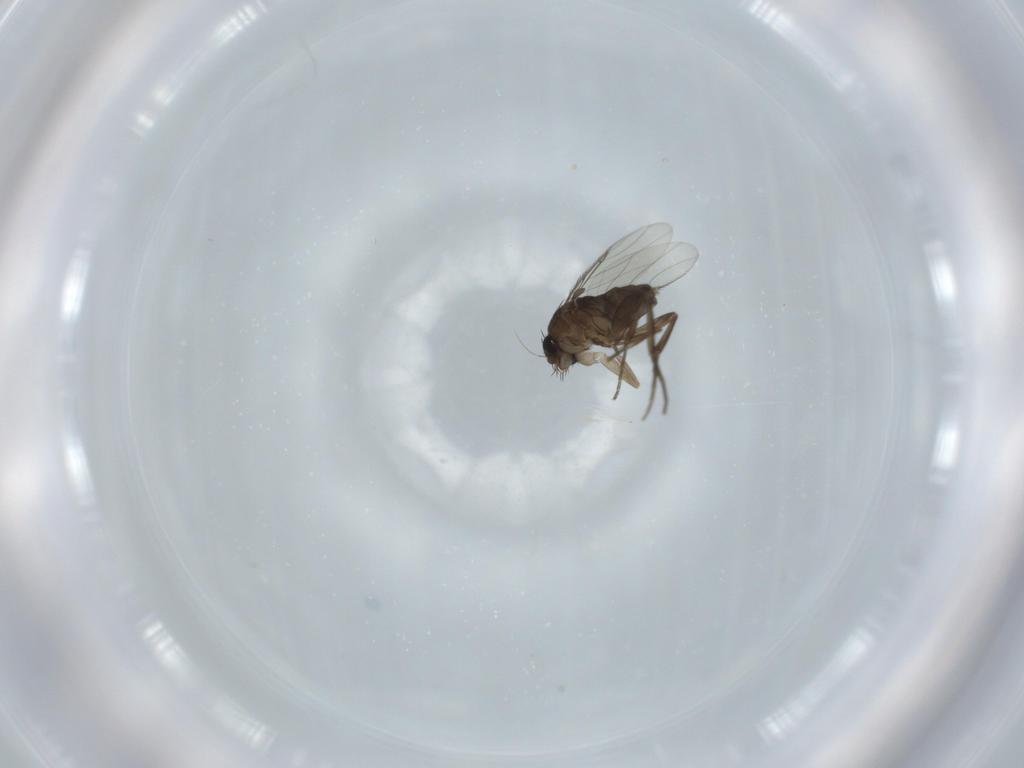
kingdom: Animalia
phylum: Arthropoda
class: Insecta
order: Diptera
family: Cecidomyiidae
